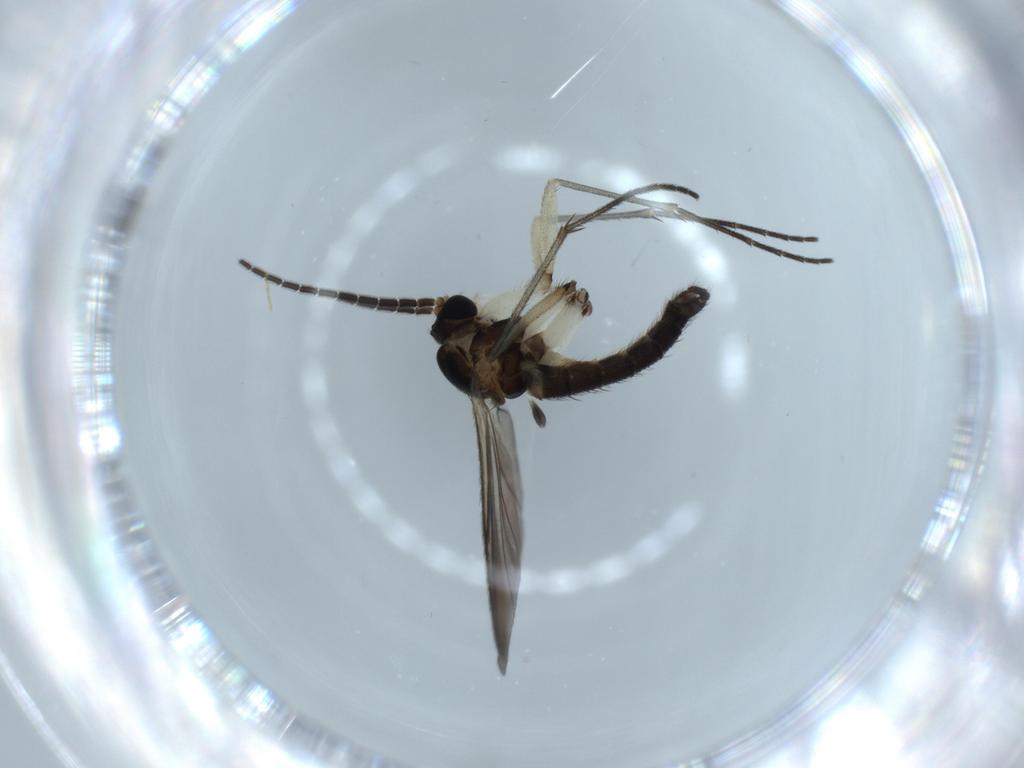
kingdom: Animalia
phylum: Arthropoda
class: Insecta
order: Diptera
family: Sciaridae
